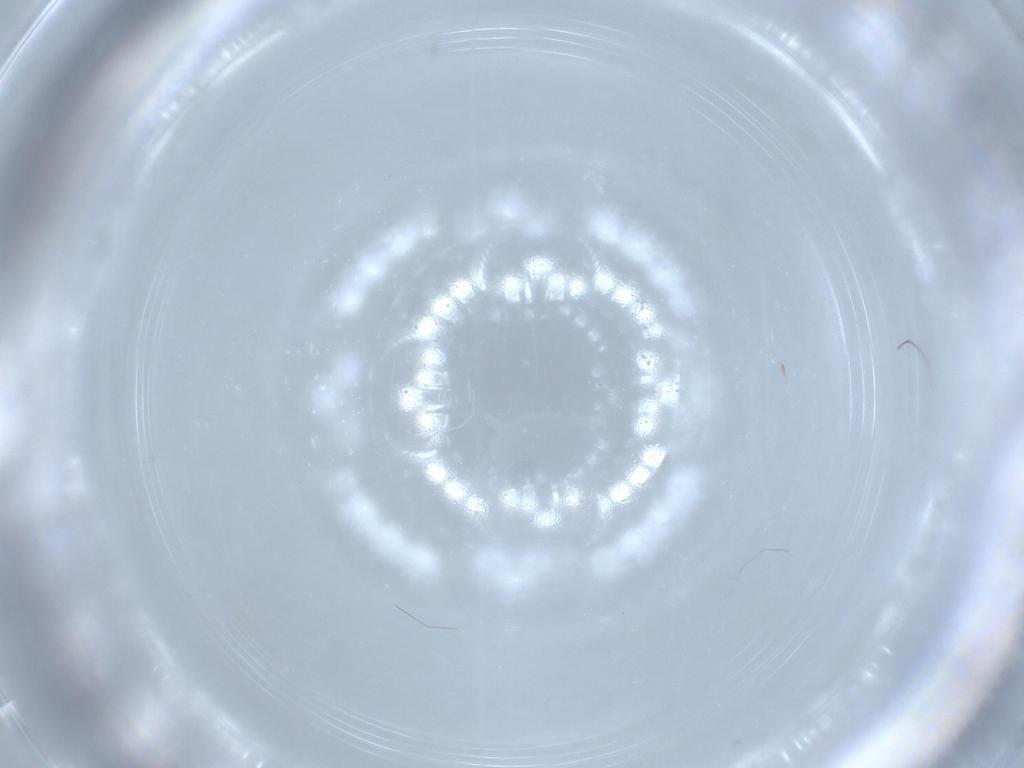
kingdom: Animalia
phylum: Arthropoda
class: Insecta
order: Diptera
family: Cecidomyiidae
